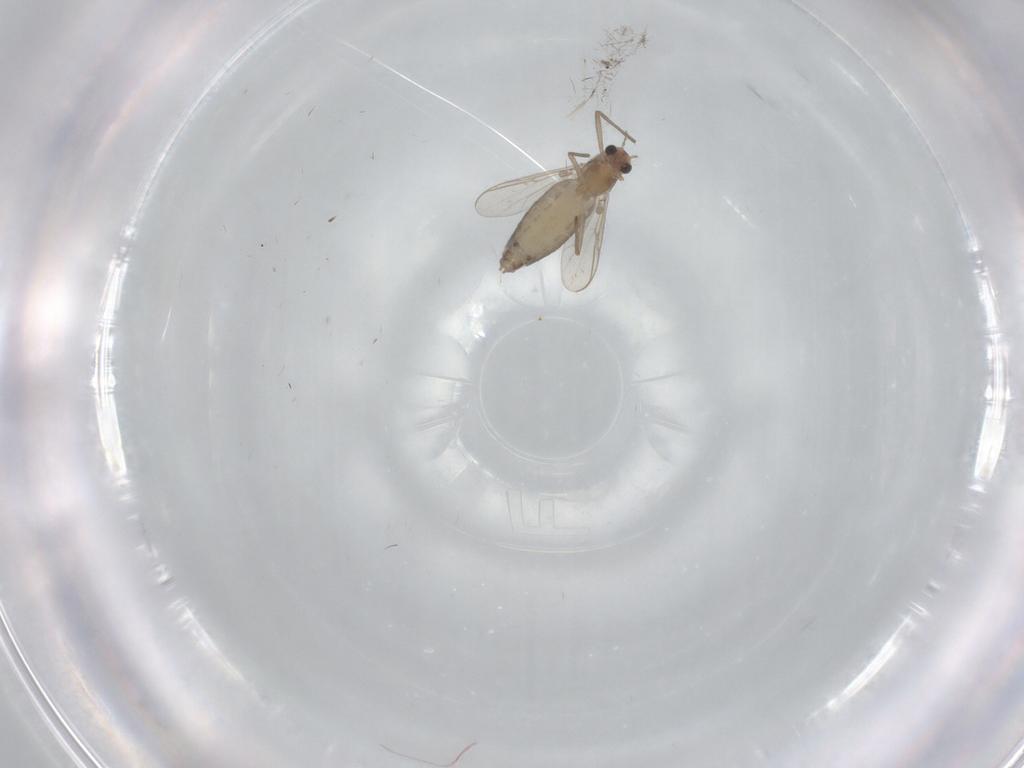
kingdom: Animalia
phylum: Arthropoda
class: Insecta
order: Diptera
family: Chironomidae
